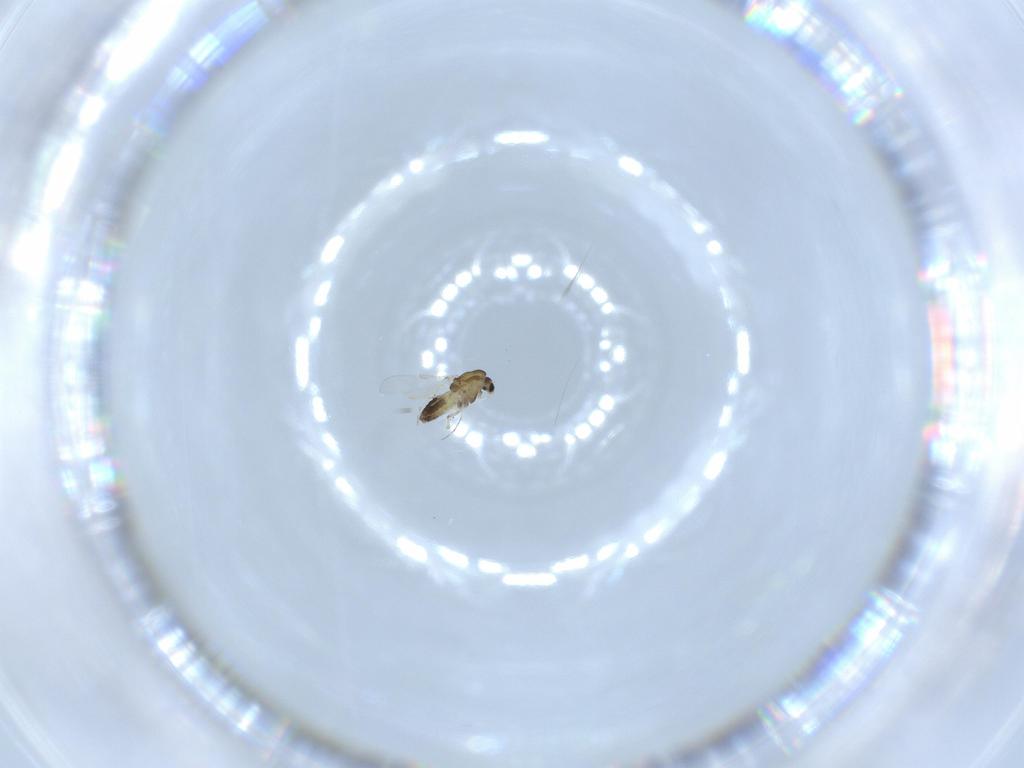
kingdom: Animalia
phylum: Arthropoda
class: Insecta
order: Diptera
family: Chironomidae
